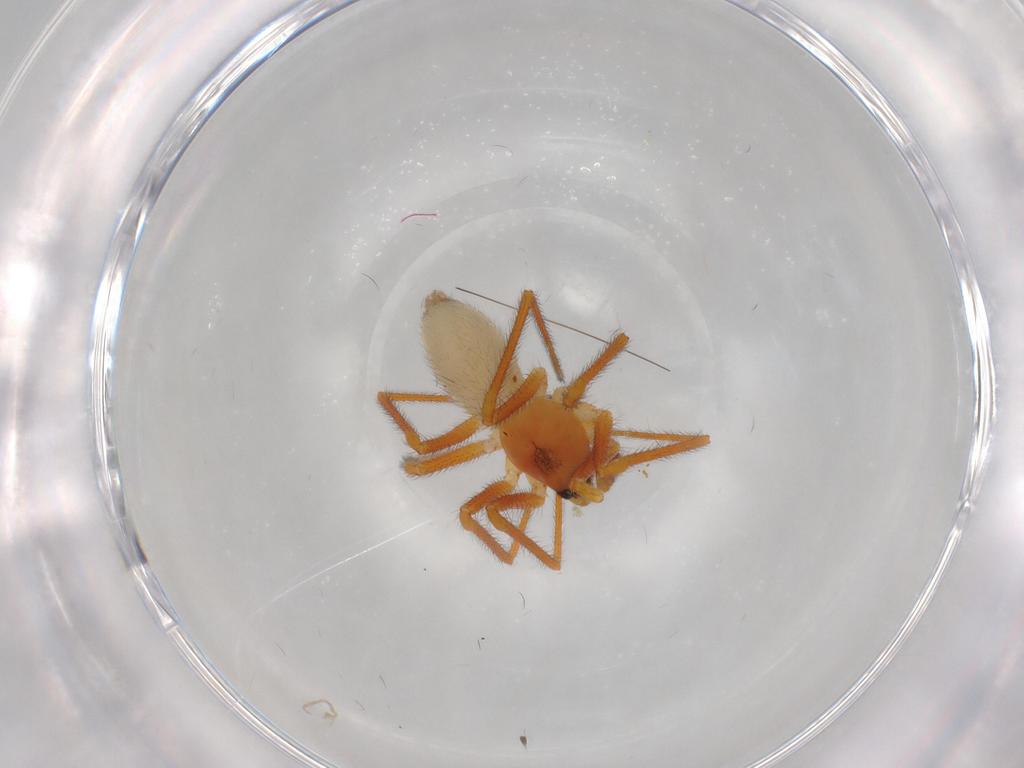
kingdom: Animalia
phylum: Arthropoda
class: Arachnida
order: Araneae
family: Linyphiidae
